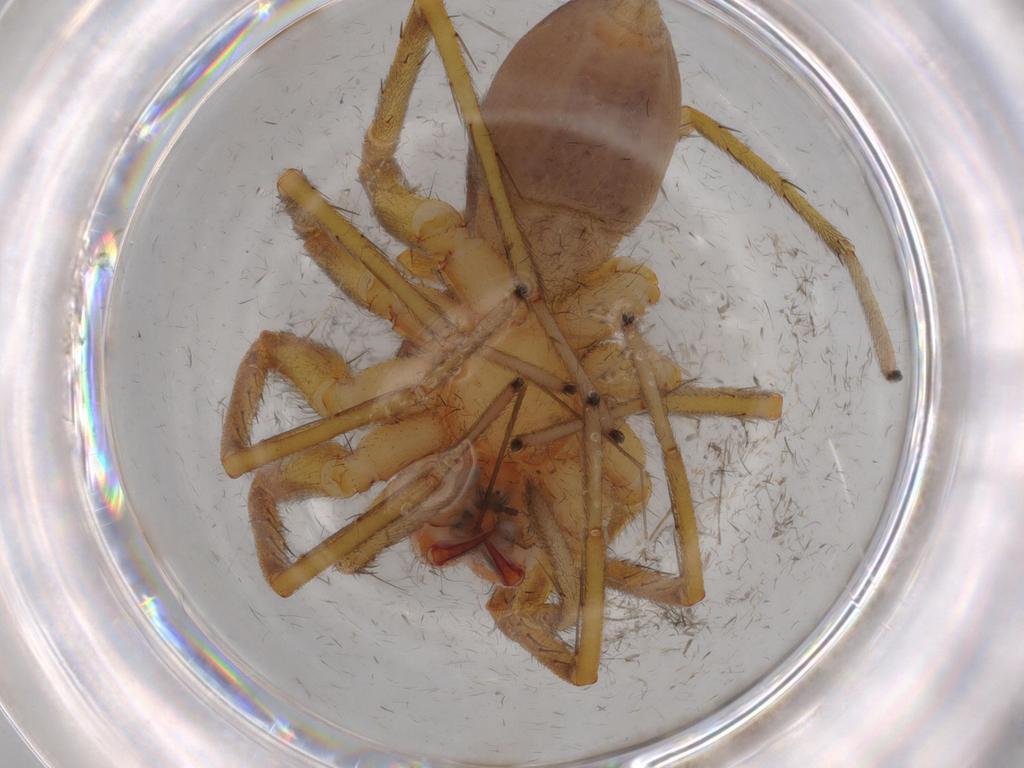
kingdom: Animalia
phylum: Arthropoda
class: Insecta
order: Diptera
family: Limoniidae
